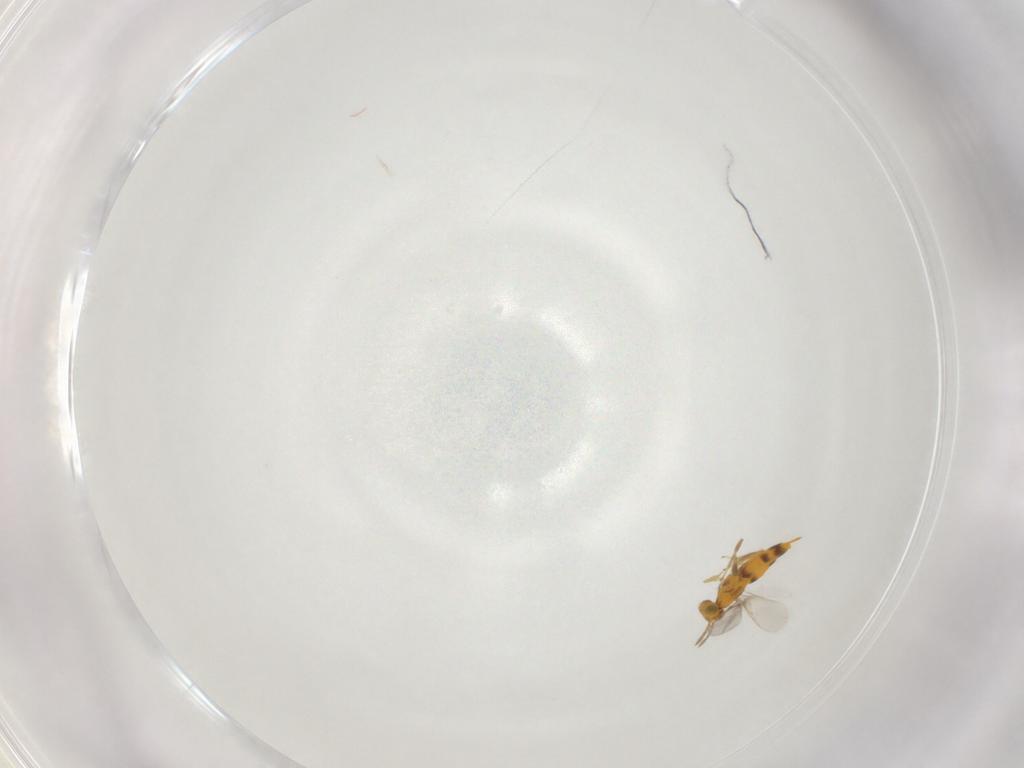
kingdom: Animalia
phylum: Arthropoda
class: Insecta
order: Hymenoptera
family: Aphelinidae
